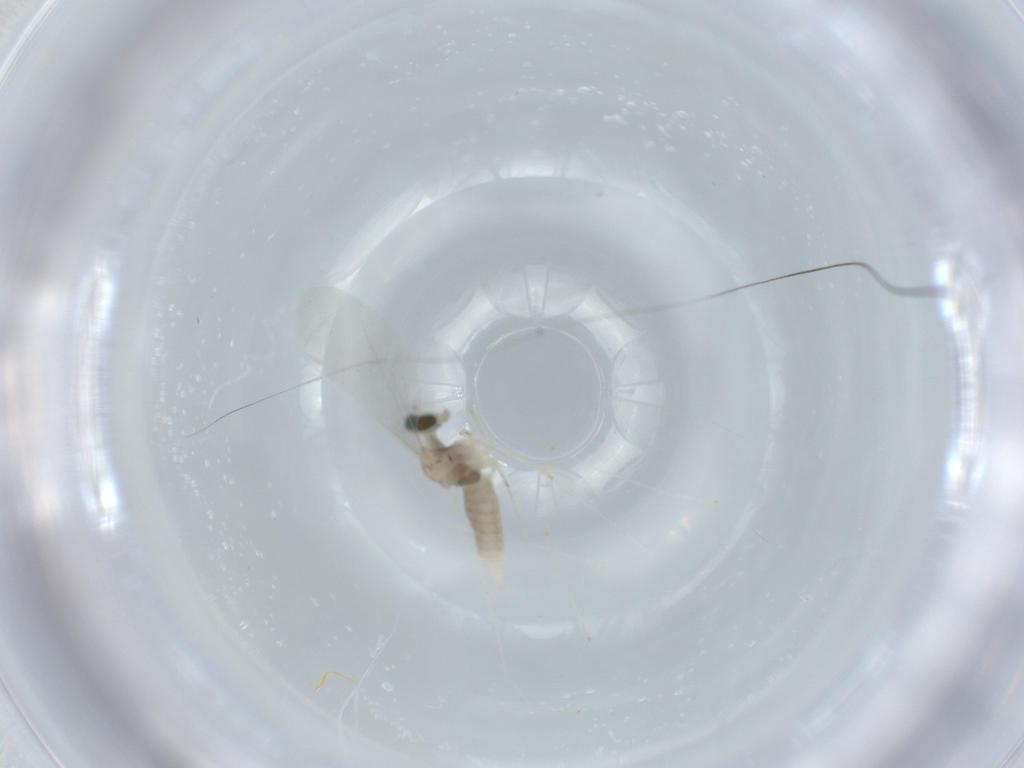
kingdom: Animalia
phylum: Arthropoda
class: Insecta
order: Diptera
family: Cecidomyiidae
